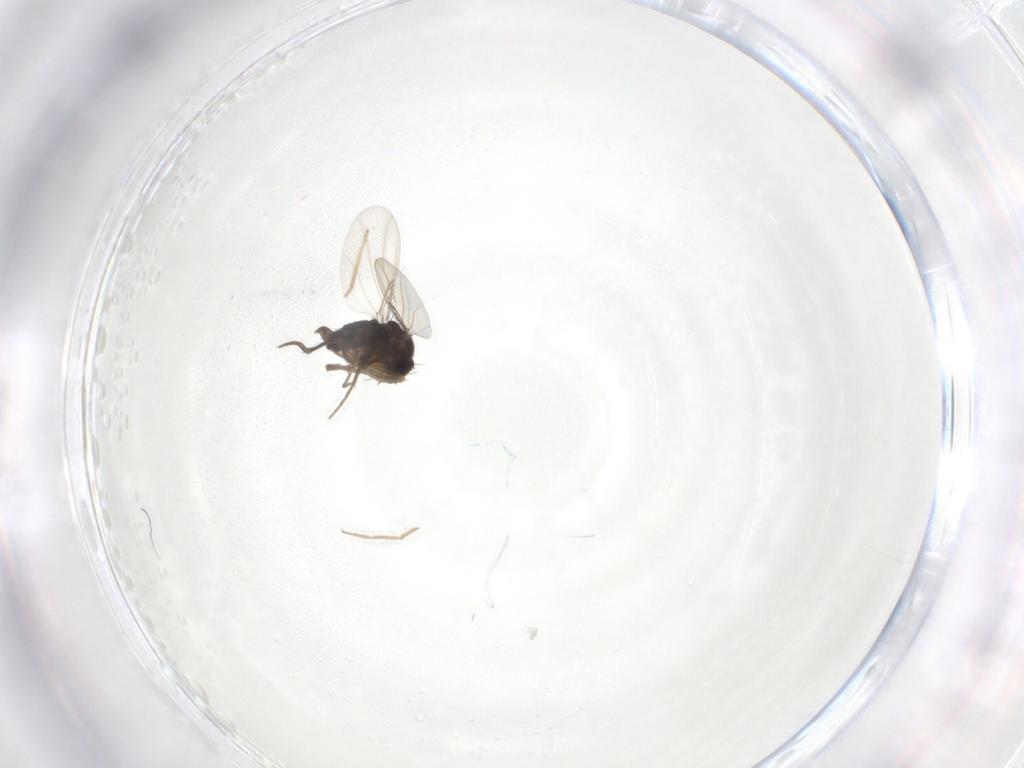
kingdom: Animalia
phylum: Arthropoda
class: Insecta
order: Diptera
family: Phoridae
